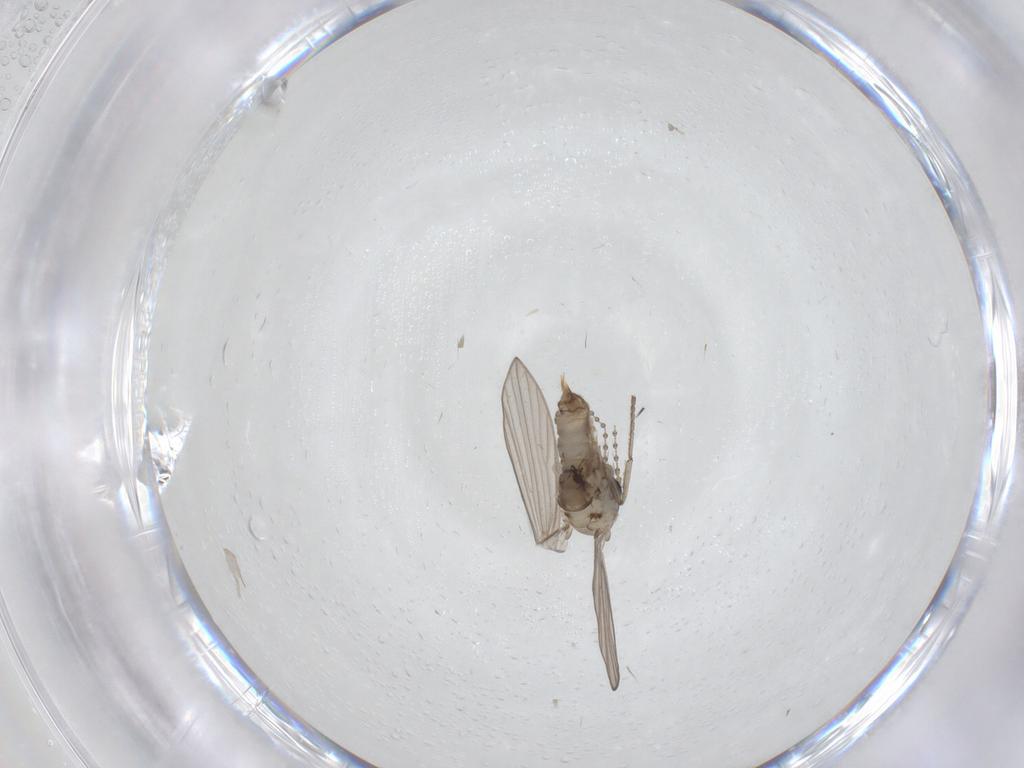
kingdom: Animalia
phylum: Arthropoda
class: Insecta
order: Diptera
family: Psychodidae
